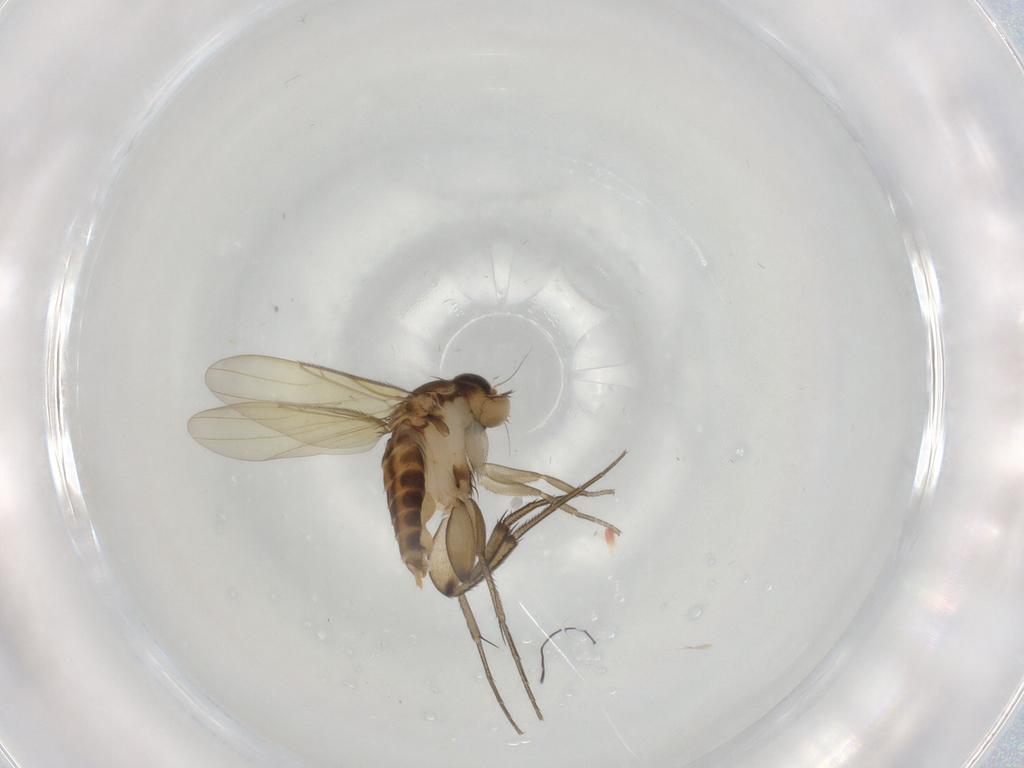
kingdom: Animalia
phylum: Arthropoda
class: Insecta
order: Diptera
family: Phoridae
